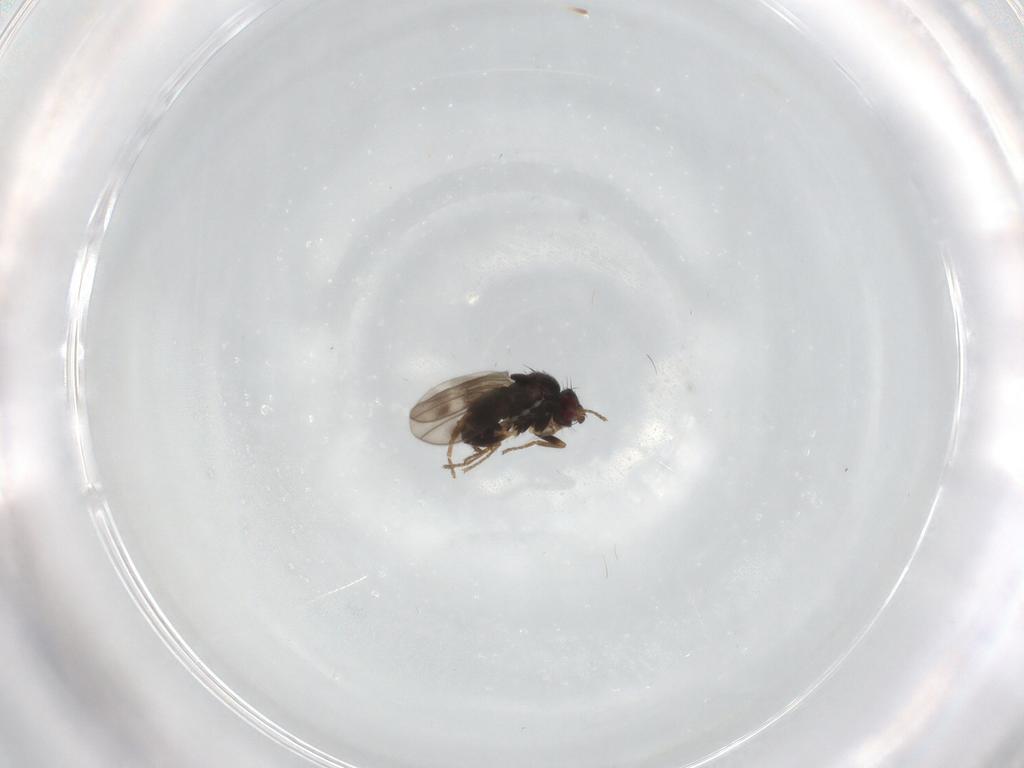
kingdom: Animalia
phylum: Arthropoda
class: Insecta
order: Diptera
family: Sphaeroceridae
